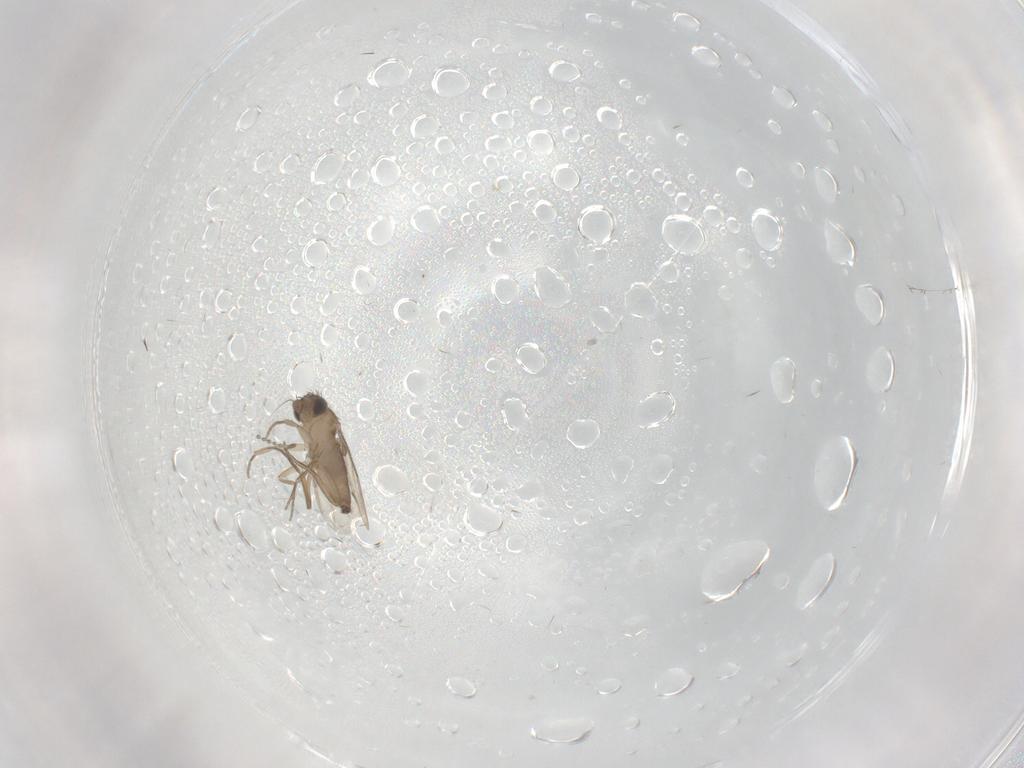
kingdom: Animalia
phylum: Arthropoda
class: Insecta
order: Diptera
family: Psychodidae
